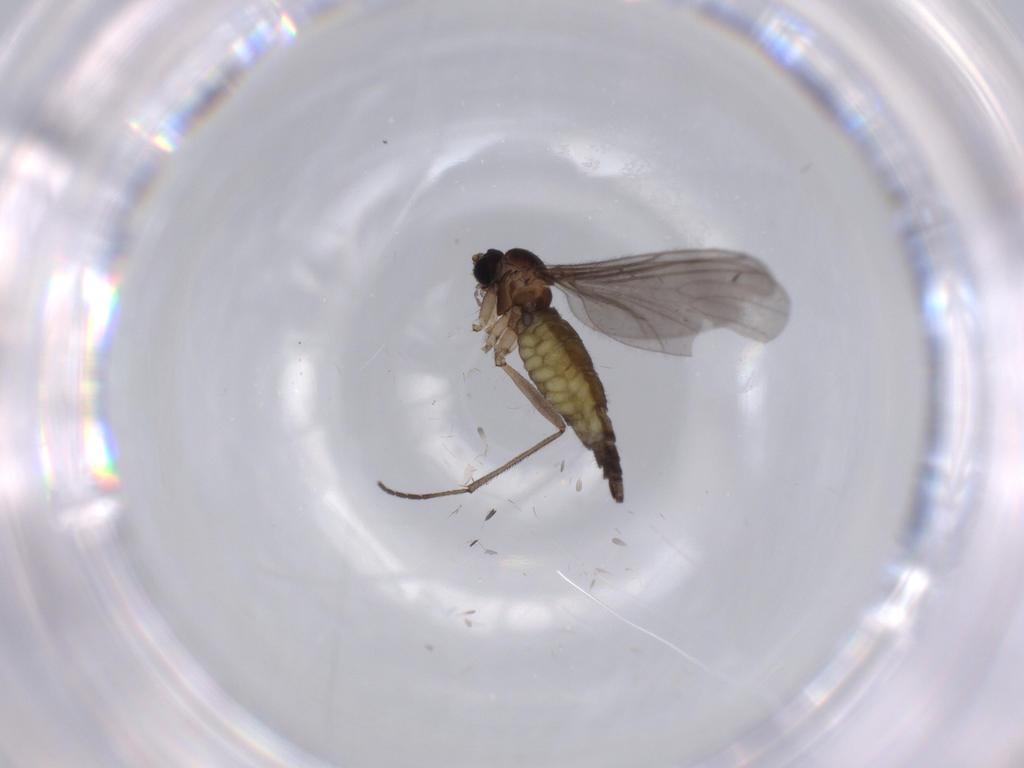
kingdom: Animalia
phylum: Arthropoda
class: Insecta
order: Diptera
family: Sciaridae
